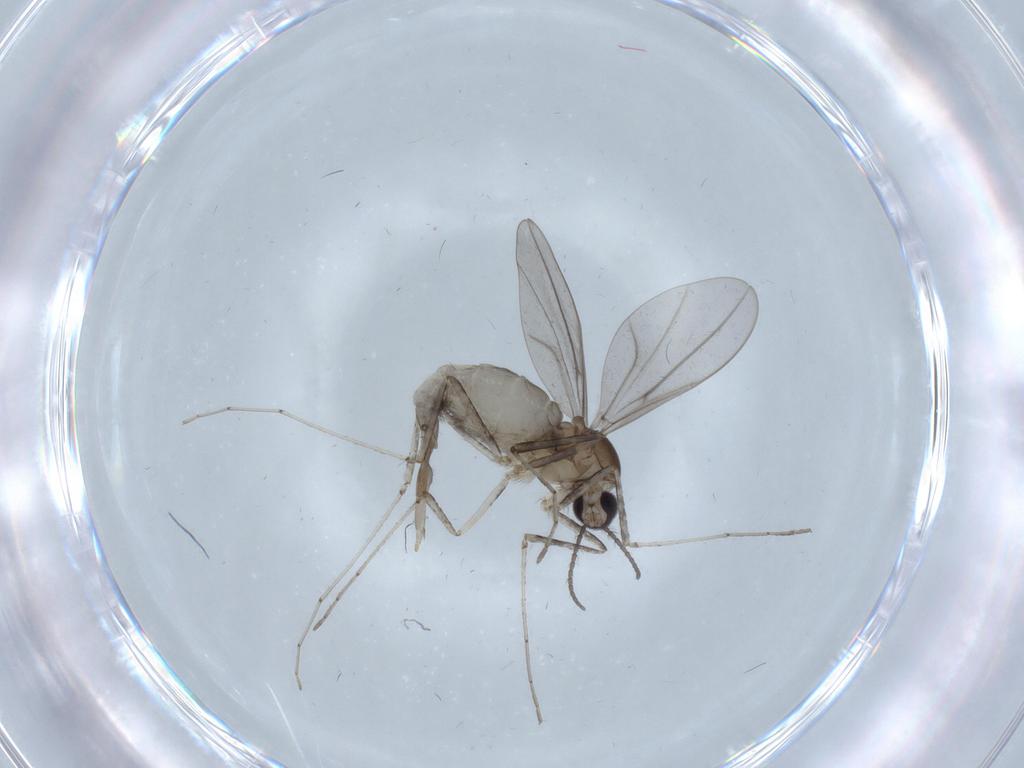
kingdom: Animalia
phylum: Arthropoda
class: Insecta
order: Diptera
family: Cecidomyiidae
